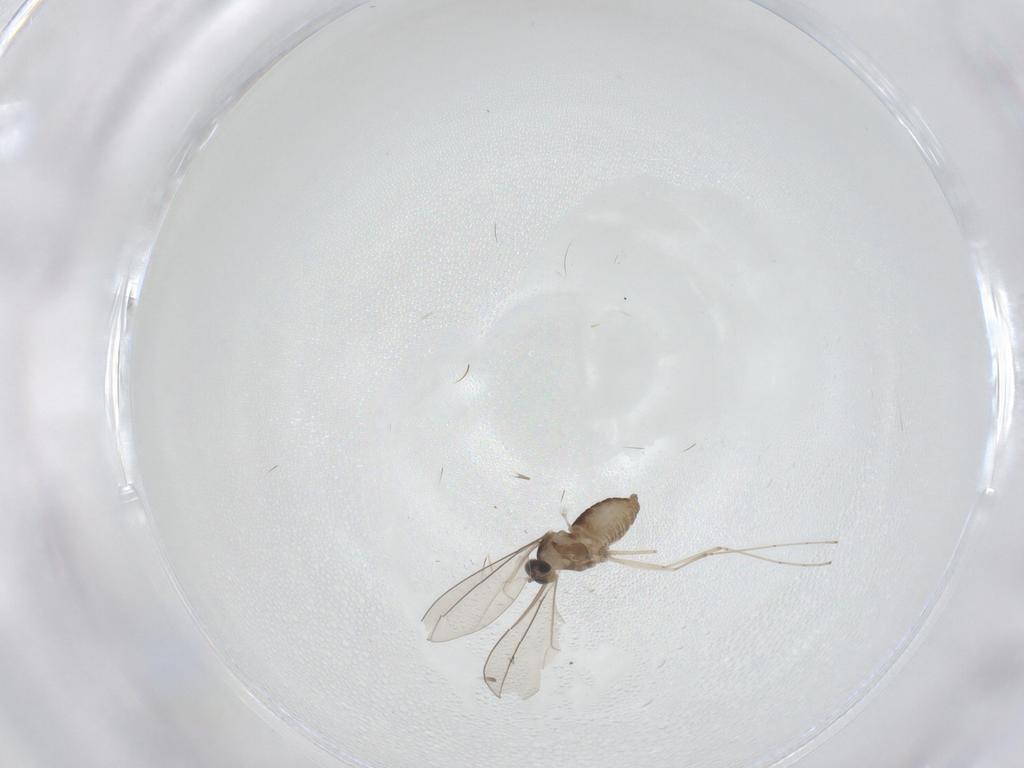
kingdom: Animalia
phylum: Arthropoda
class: Insecta
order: Diptera
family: Cecidomyiidae
